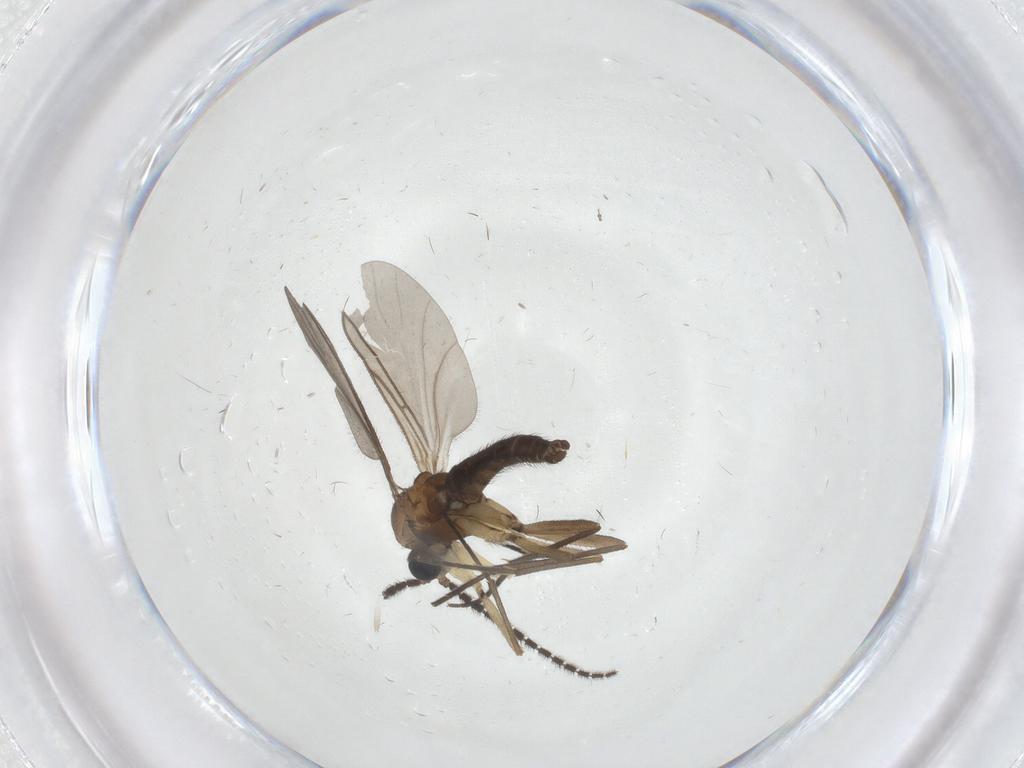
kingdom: Animalia
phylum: Arthropoda
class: Insecta
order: Diptera
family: Sciaridae
